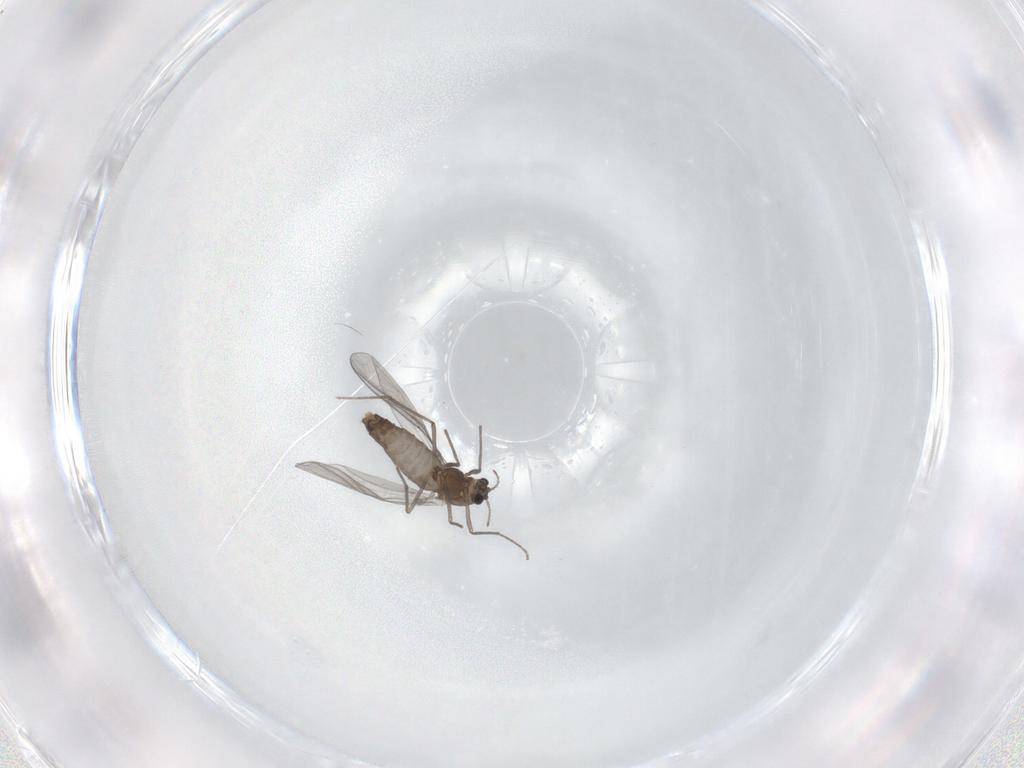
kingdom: Animalia
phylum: Arthropoda
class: Insecta
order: Diptera
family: Chironomidae
